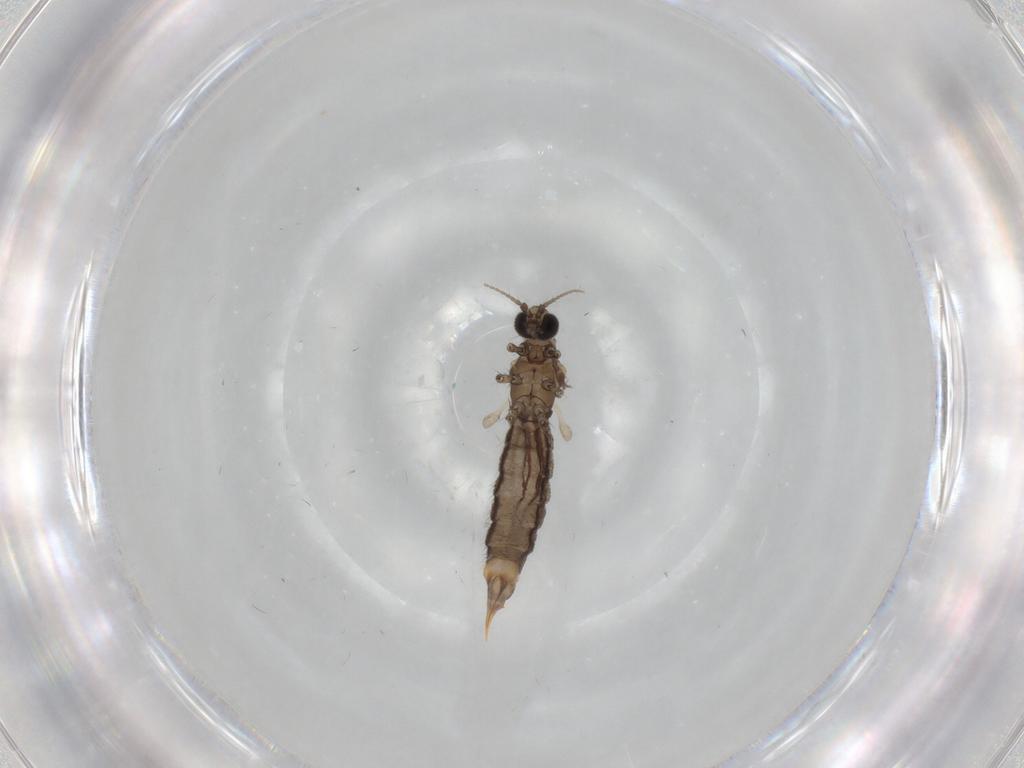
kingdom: Animalia
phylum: Arthropoda
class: Insecta
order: Diptera
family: Limoniidae
